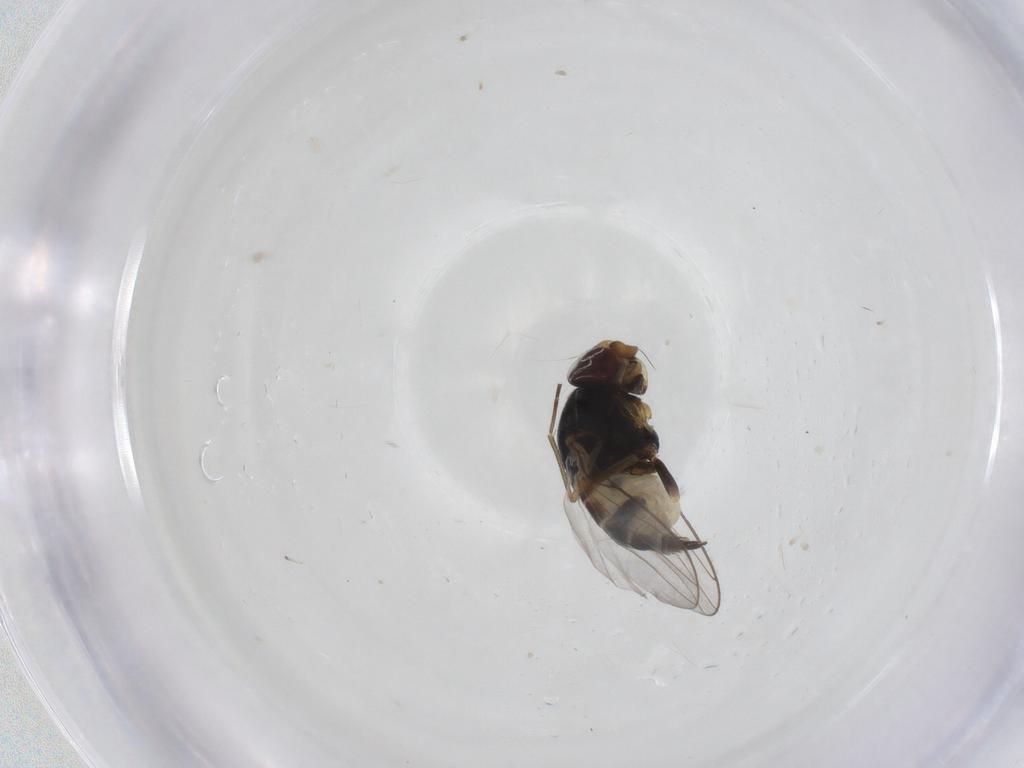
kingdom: Animalia
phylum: Arthropoda
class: Insecta
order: Diptera
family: Chloropidae
